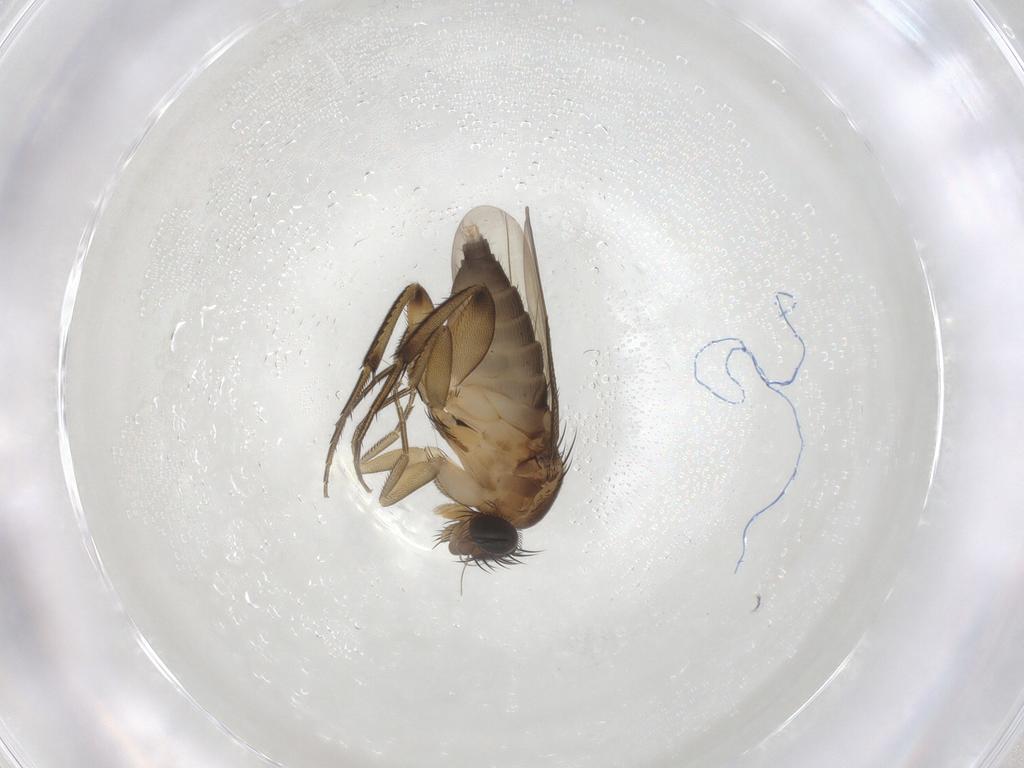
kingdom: Animalia
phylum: Arthropoda
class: Insecta
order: Diptera
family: Phoridae
